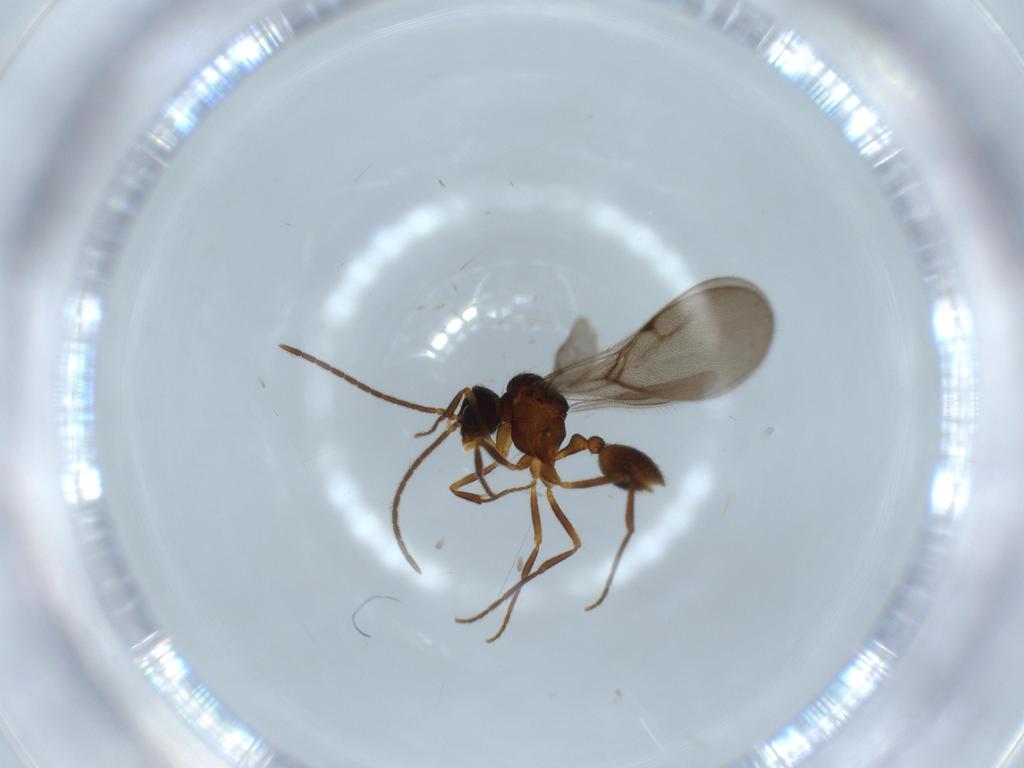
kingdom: Animalia
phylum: Arthropoda
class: Insecta
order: Hymenoptera
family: Formicidae
